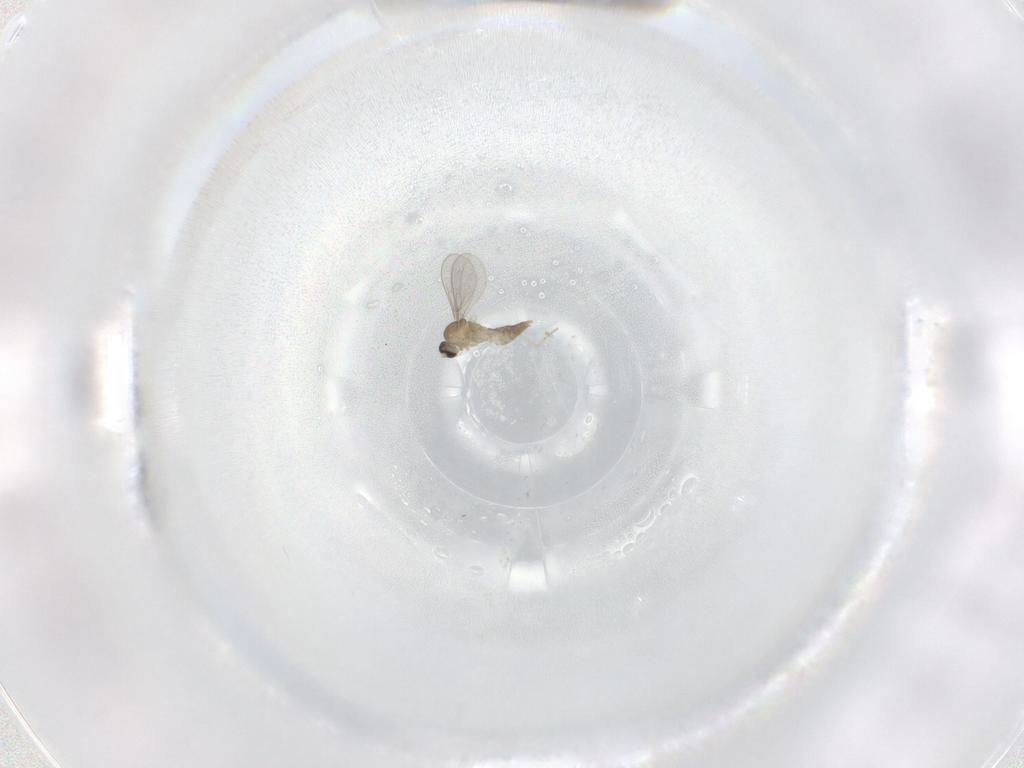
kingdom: Animalia
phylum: Arthropoda
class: Insecta
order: Diptera
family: Cecidomyiidae
